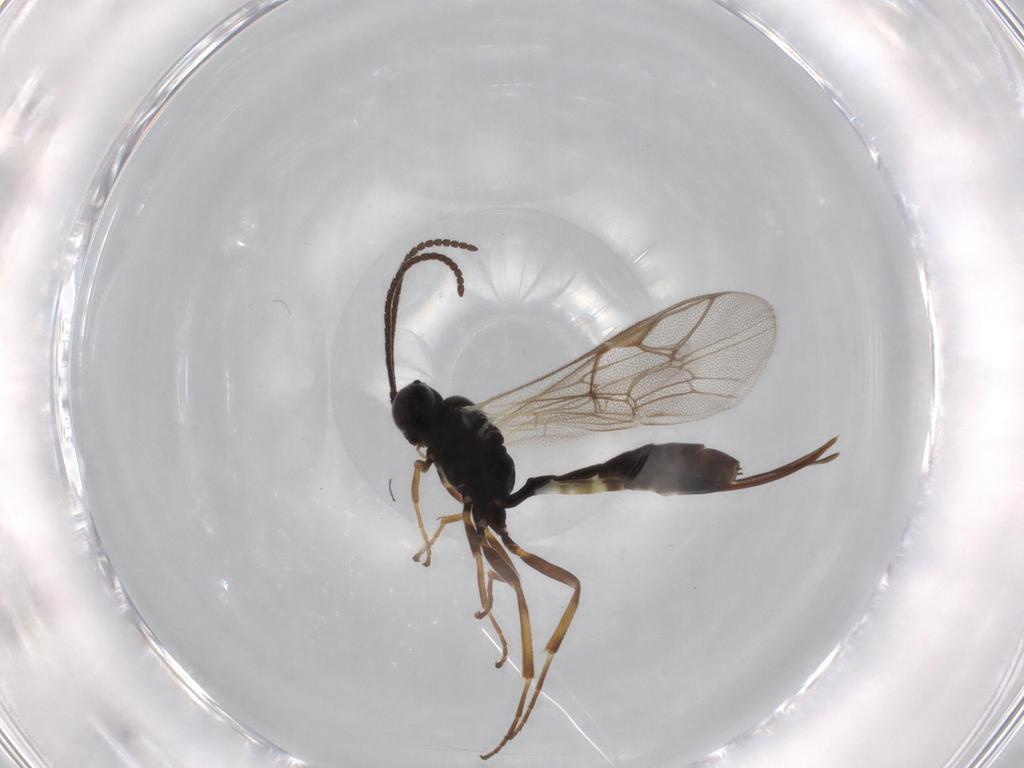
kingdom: Animalia
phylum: Arthropoda
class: Insecta
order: Hymenoptera
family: Ichneumonidae
